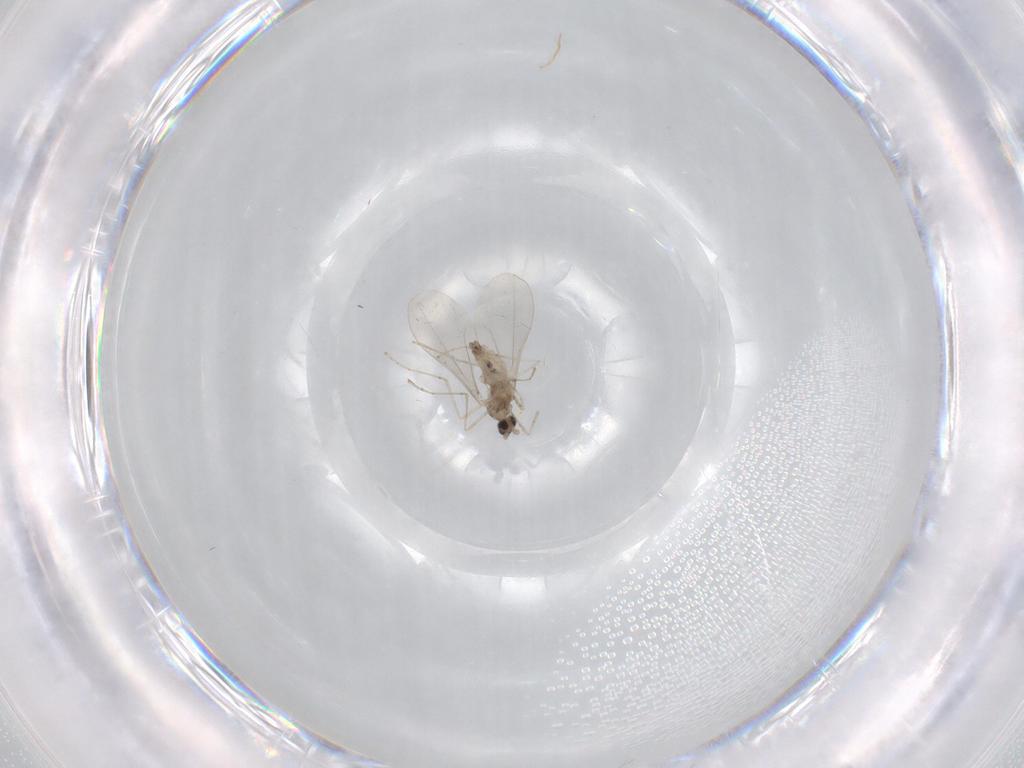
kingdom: Animalia
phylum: Arthropoda
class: Insecta
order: Diptera
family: Cecidomyiidae
